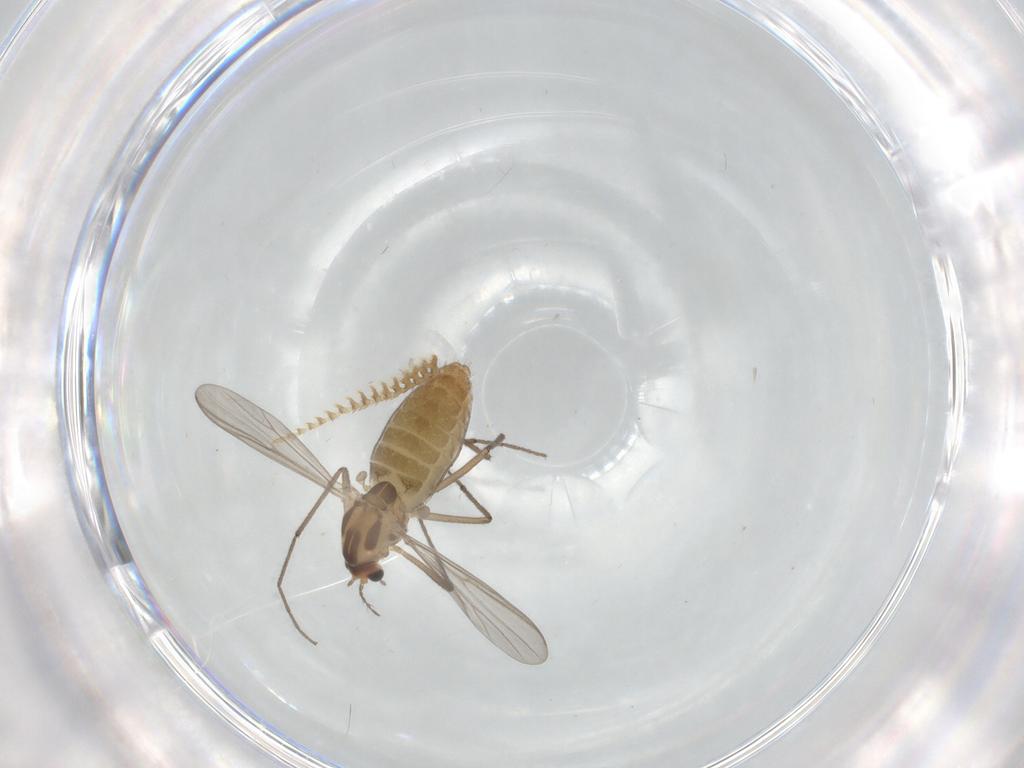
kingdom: Animalia
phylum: Arthropoda
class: Insecta
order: Diptera
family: Chironomidae
